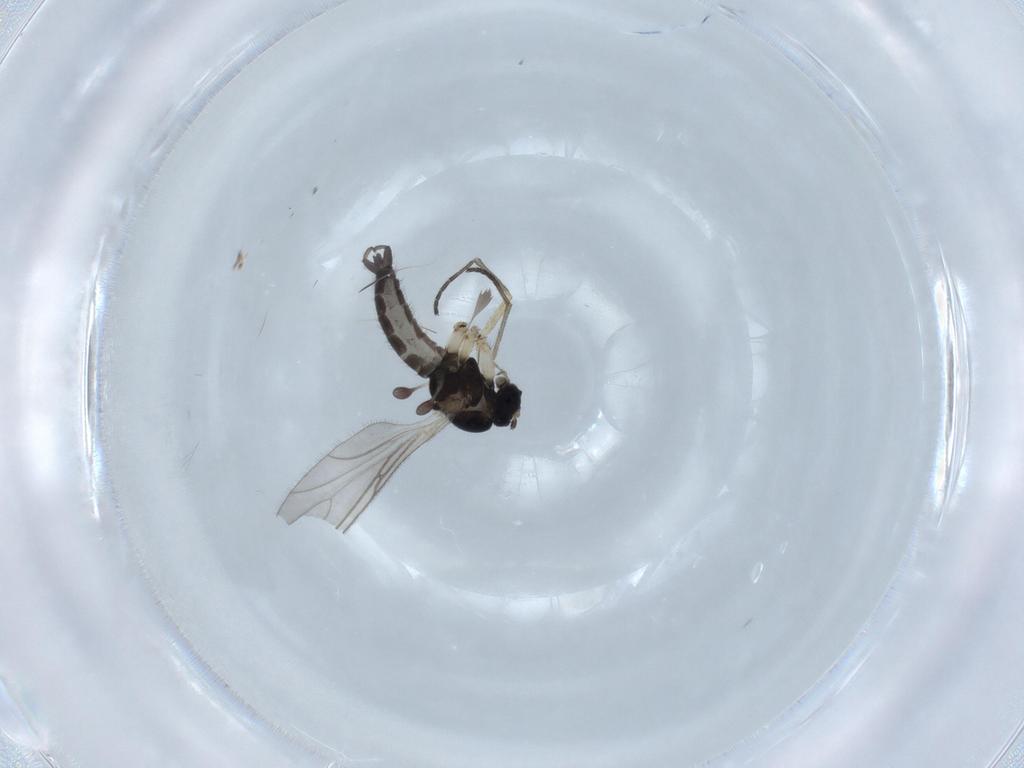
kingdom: Animalia
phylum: Arthropoda
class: Insecta
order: Diptera
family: Sciaridae
